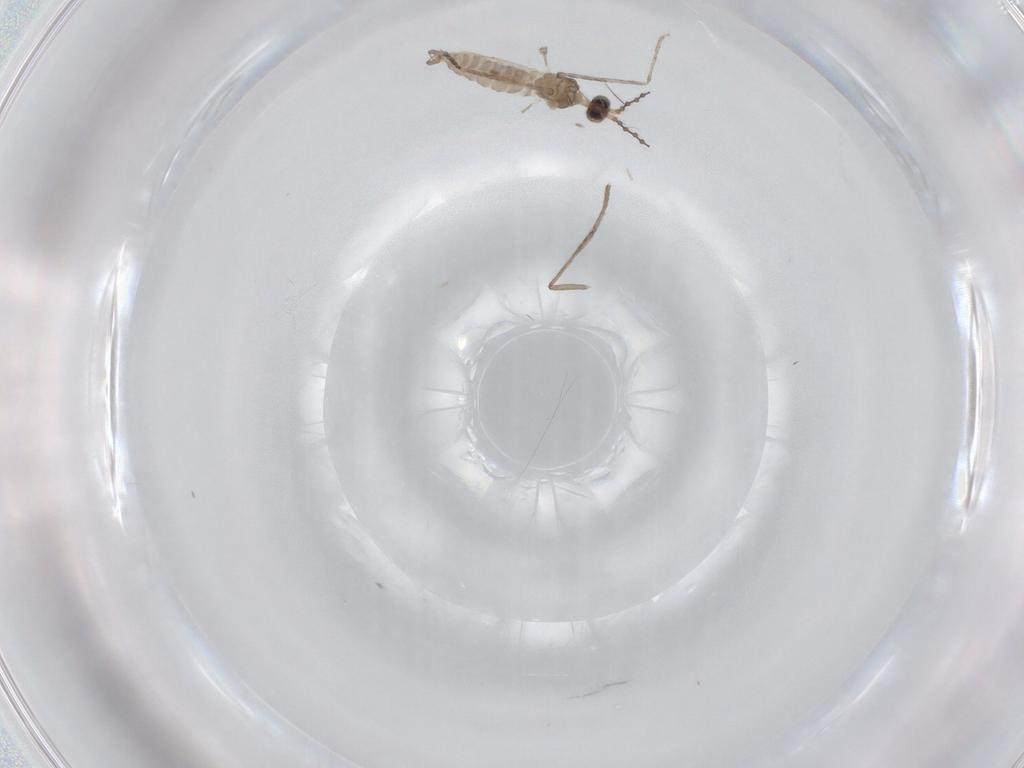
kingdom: Animalia
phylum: Arthropoda
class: Insecta
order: Diptera
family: Psychodidae
